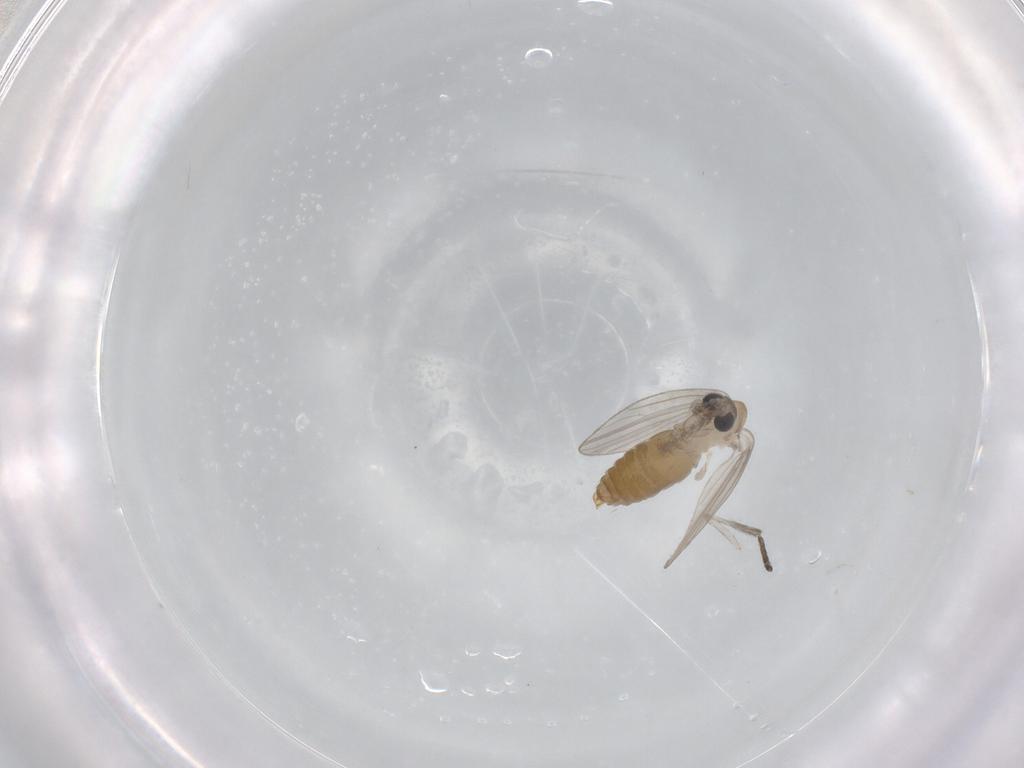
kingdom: Animalia
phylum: Arthropoda
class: Insecta
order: Diptera
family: Psychodidae
